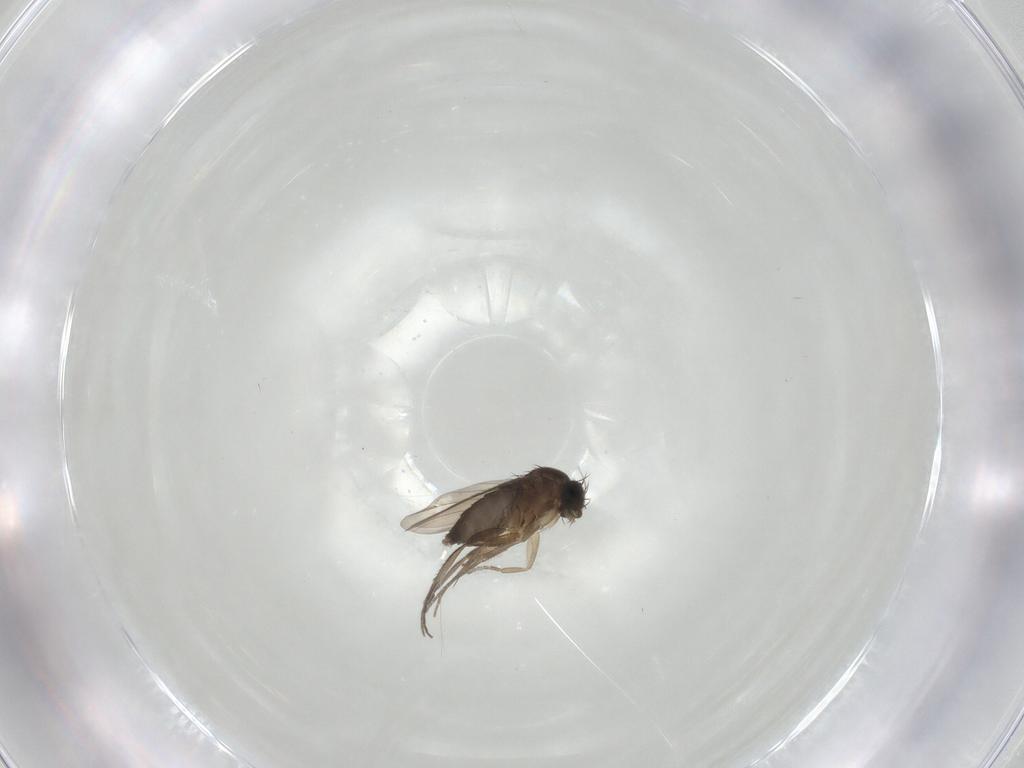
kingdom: Animalia
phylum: Arthropoda
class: Insecta
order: Diptera
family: Phoridae
